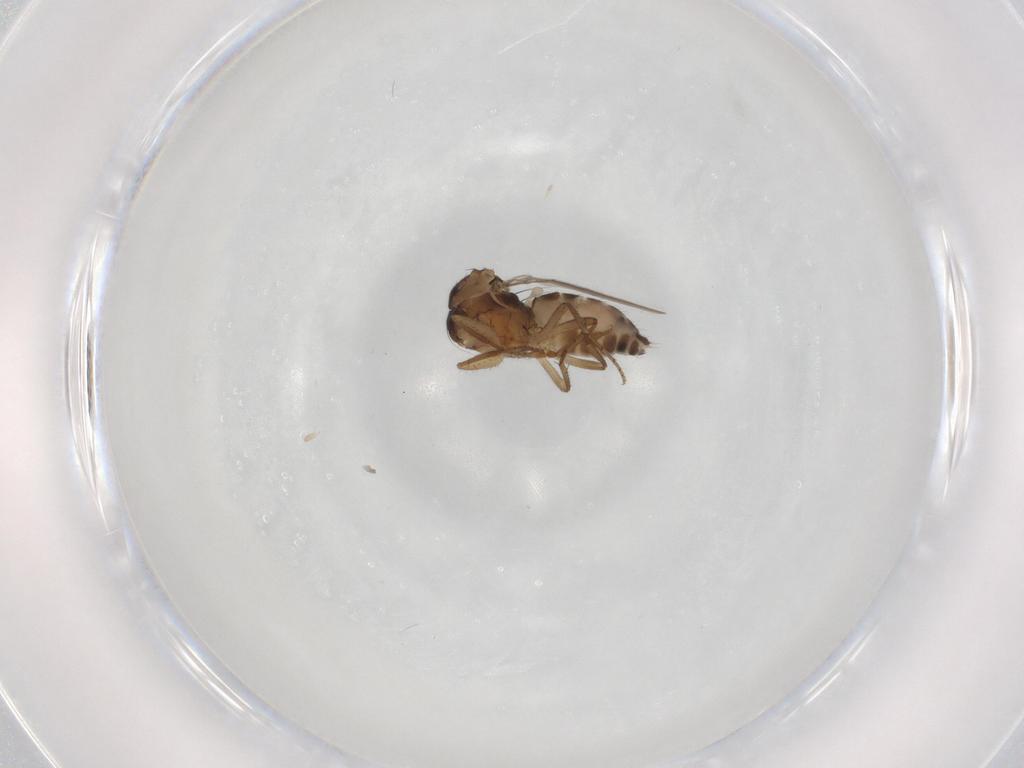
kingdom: Animalia
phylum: Arthropoda
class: Insecta
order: Diptera
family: Sphaeroceridae
